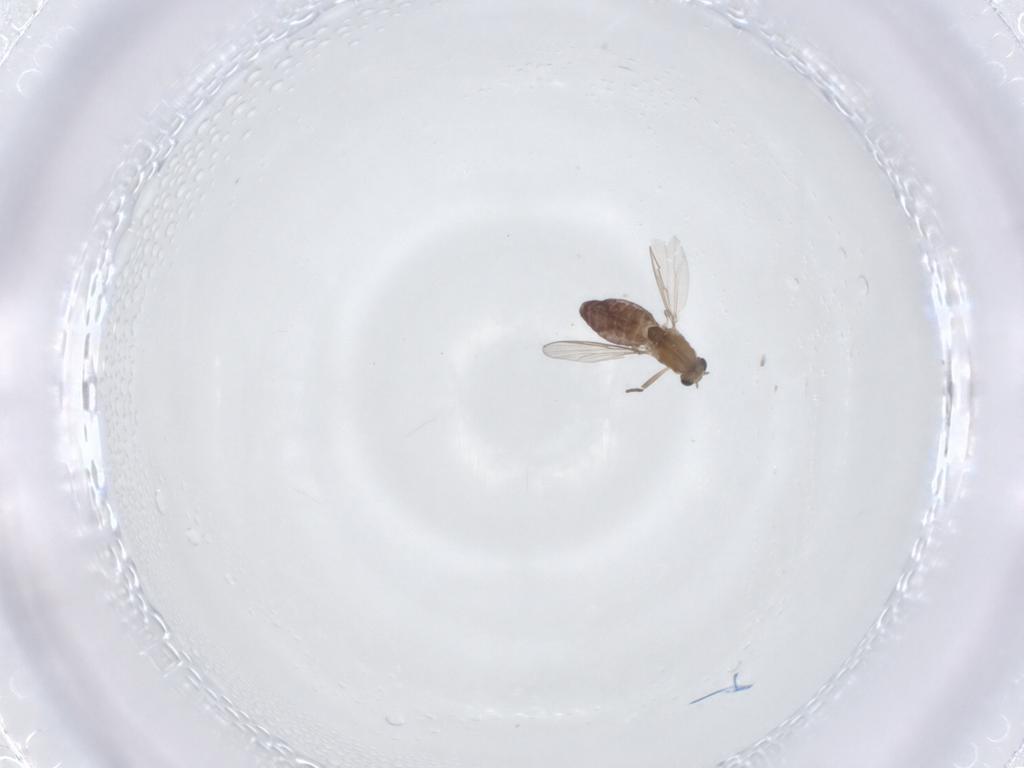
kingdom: Animalia
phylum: Arthropoda
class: Insecta
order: Diptera
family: Chironomidae
